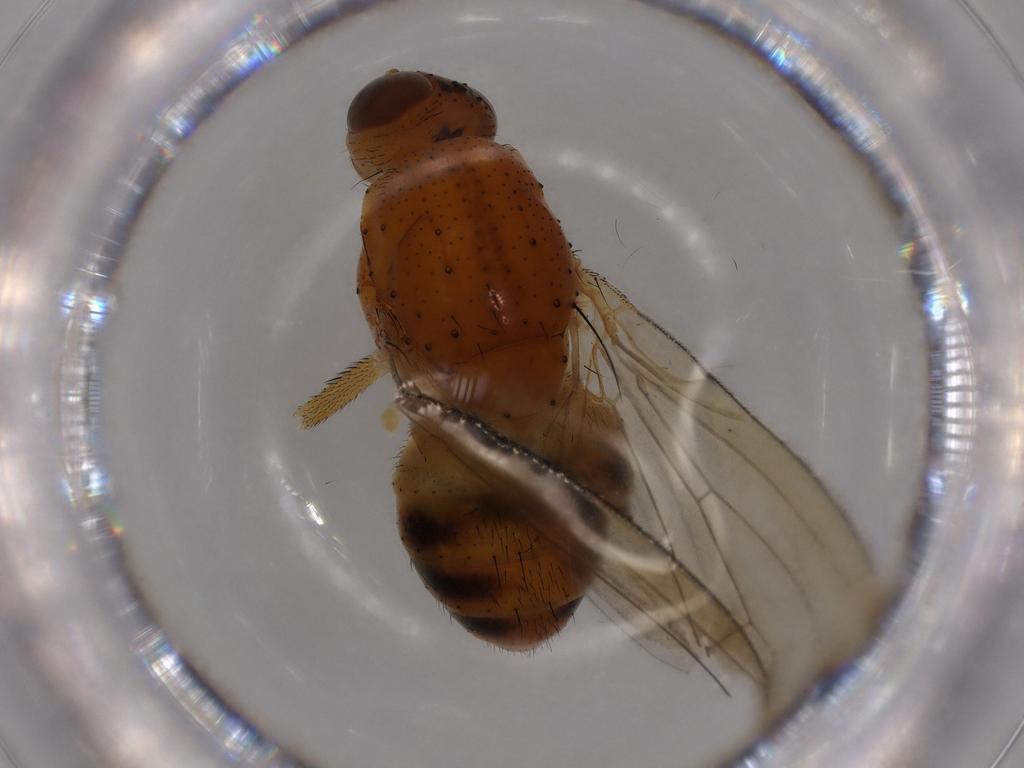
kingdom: Animalia
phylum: Arthropoda
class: Insecta
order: Diptera
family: Lauxaniidae
